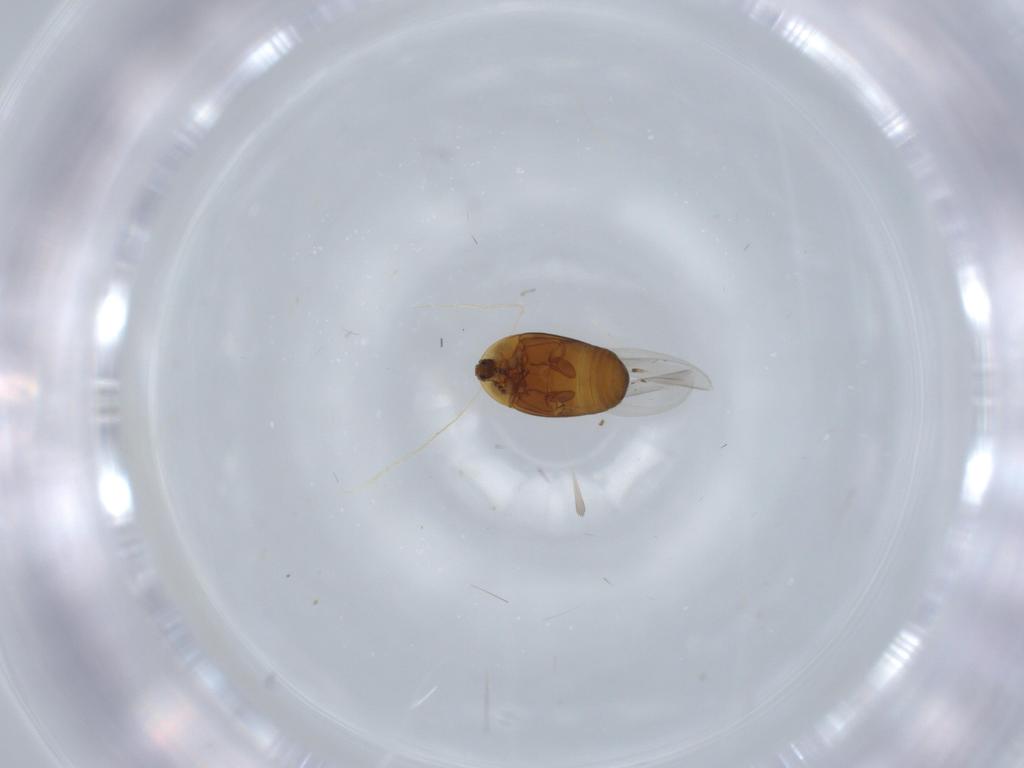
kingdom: Animalia
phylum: Arthropoda
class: Insecta
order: Coleoptera
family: Corylophidae
